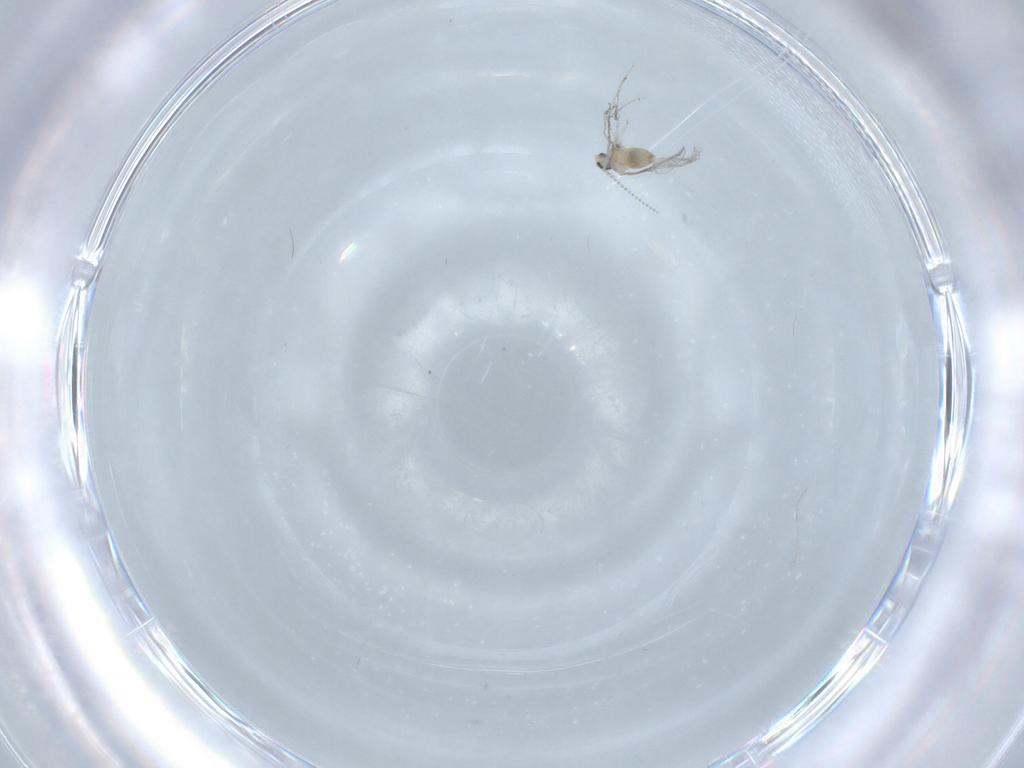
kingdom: Animalia
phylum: Arthropoda
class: Insecta
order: Diptera
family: Cecidomyiidae
